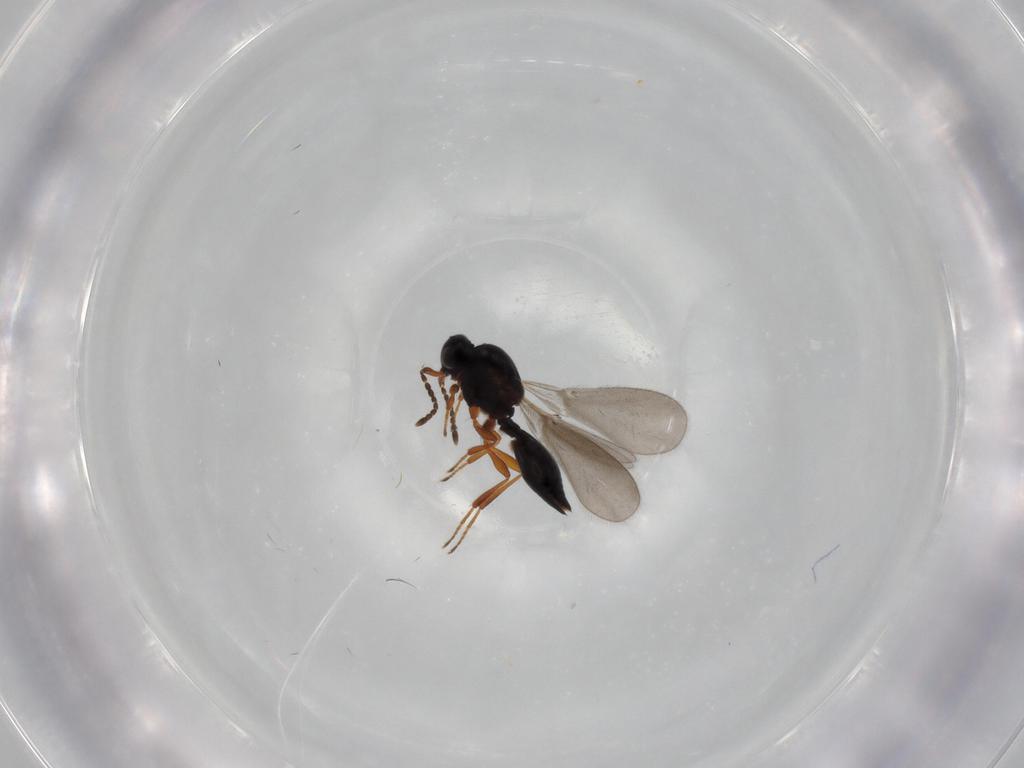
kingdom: Animalia
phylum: Arthropoda
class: Insecta
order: Hymenoptera
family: Platygastridae
